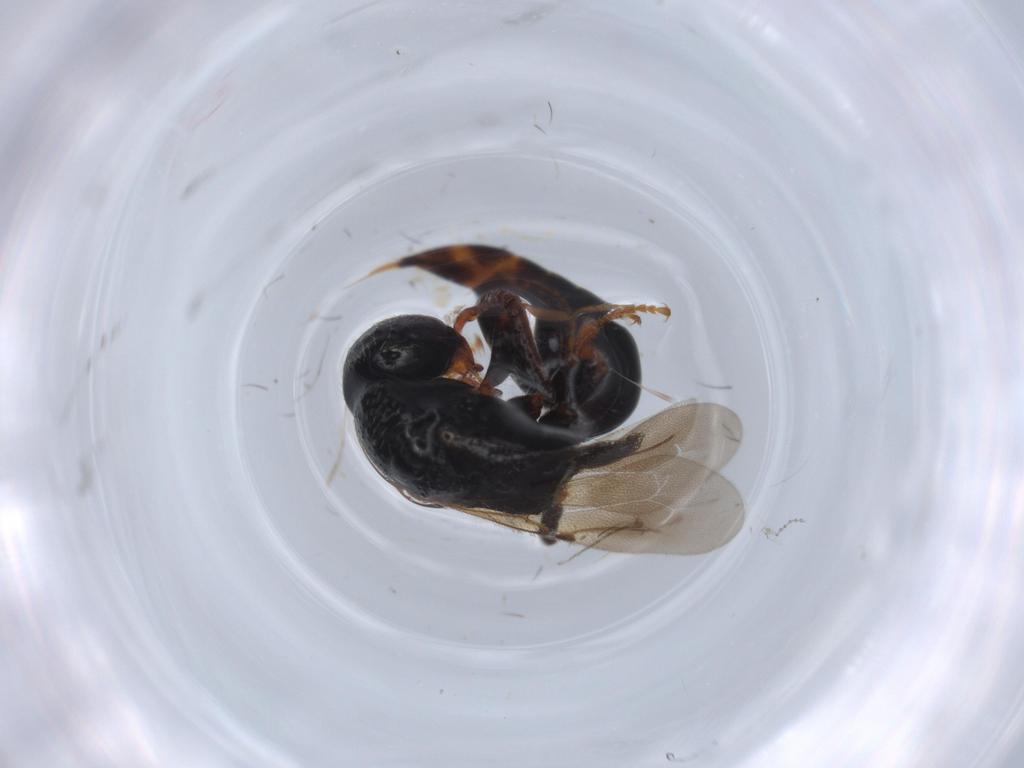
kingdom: Animalia
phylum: Arthropoda
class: Insecta
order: Hymenoptera
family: Bethylidae
